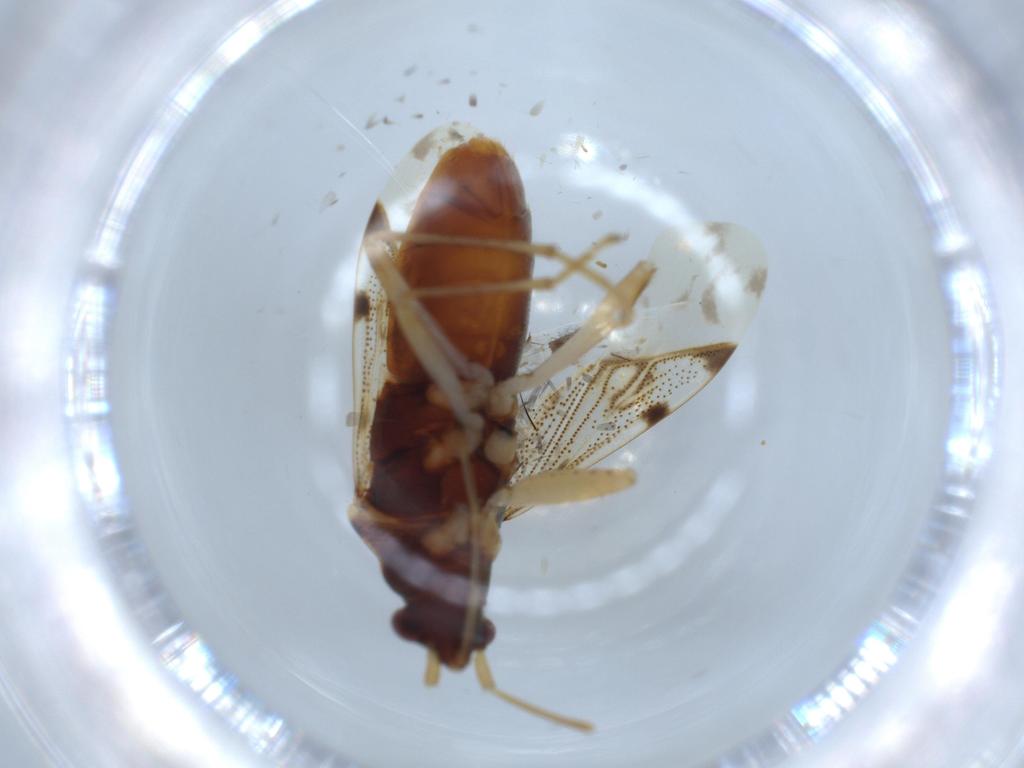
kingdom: Animalia
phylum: Arthropoda
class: Insecta
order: Hemiptera
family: Rhyparochromidae
